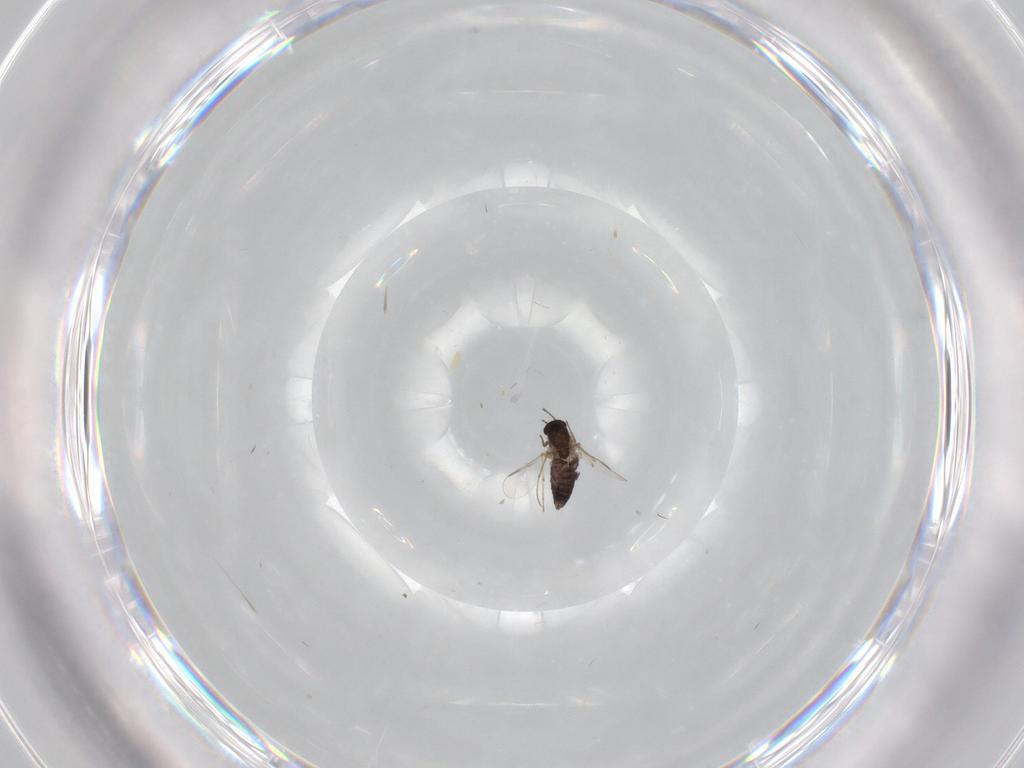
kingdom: Animalia
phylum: Arthropoda
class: Insecta
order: Diptera
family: Chironomidae
